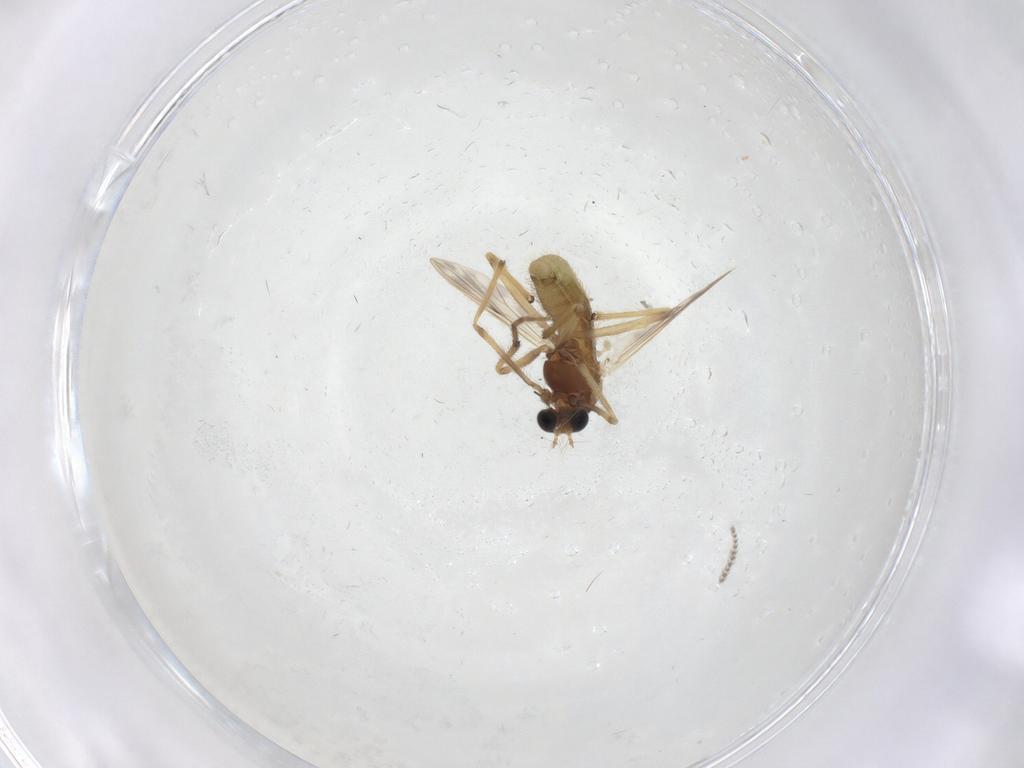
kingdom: Animalia
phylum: Arthropoda
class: Insecta
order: Diptera
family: Chironomidae
